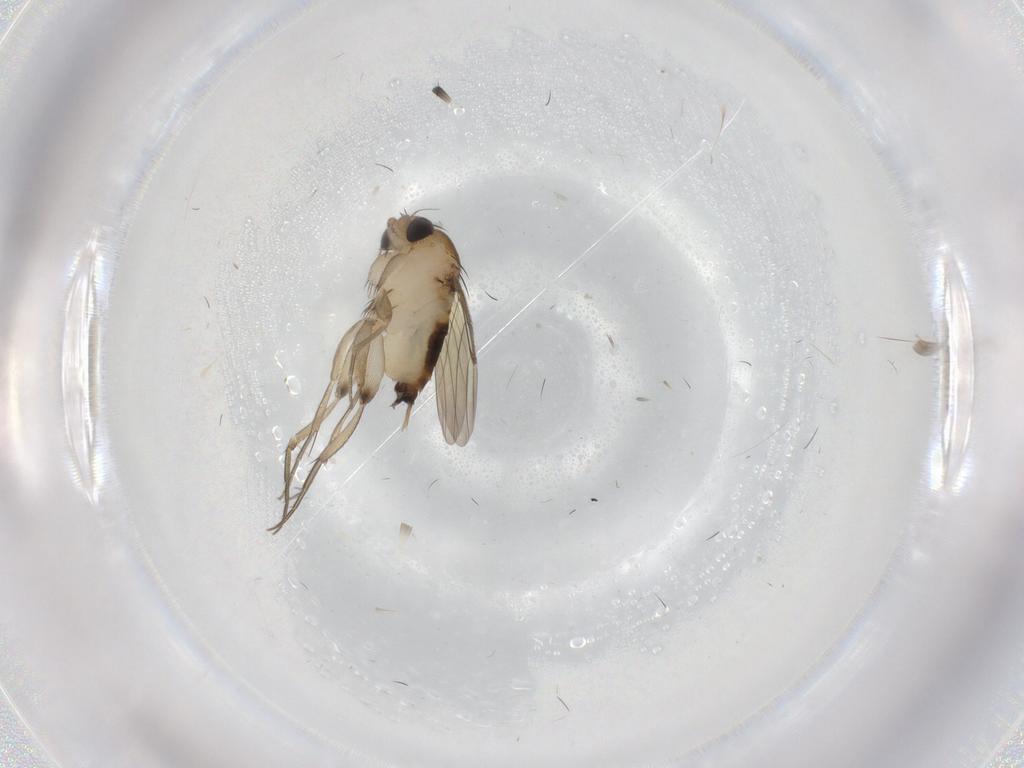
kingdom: Animalia
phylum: Arthropoda
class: Insecta
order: Diptera
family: Phoridae
